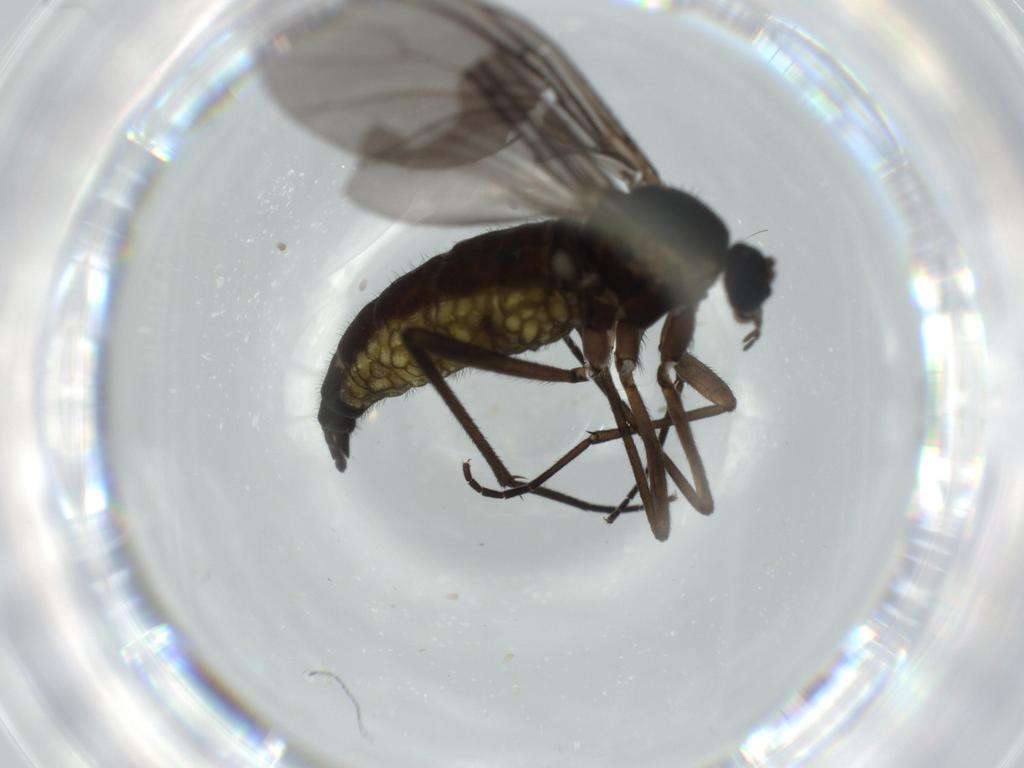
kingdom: Animalia
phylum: Arthropoda
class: Insecta
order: Diptera
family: Sciaridae
